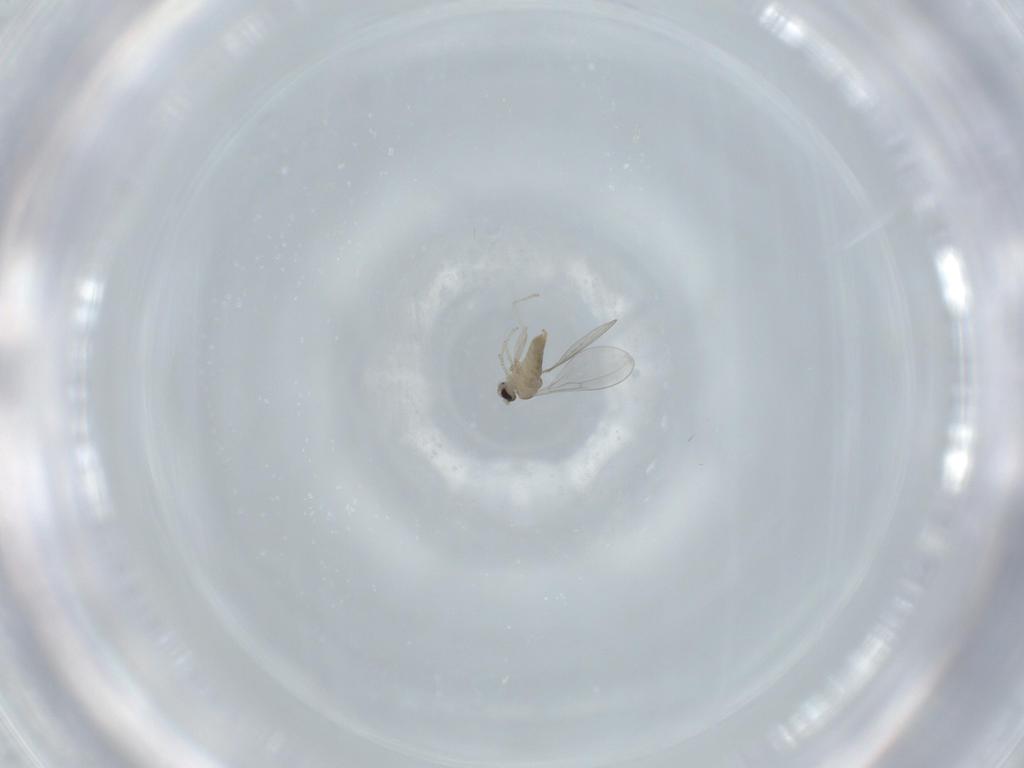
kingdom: Animalia
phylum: Arthropoda
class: Insecta
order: Diptera
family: Cecidomyiidae
